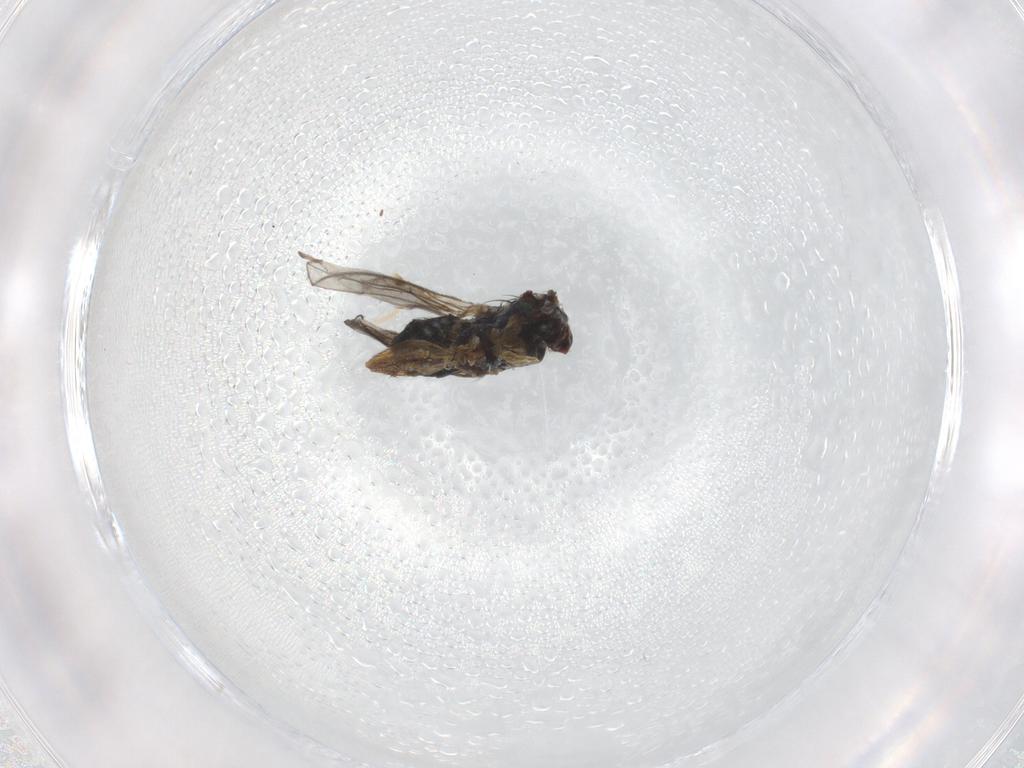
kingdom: Animalia
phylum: Arthropoda
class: Insecta
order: Diptera
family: Dolichopodidae
